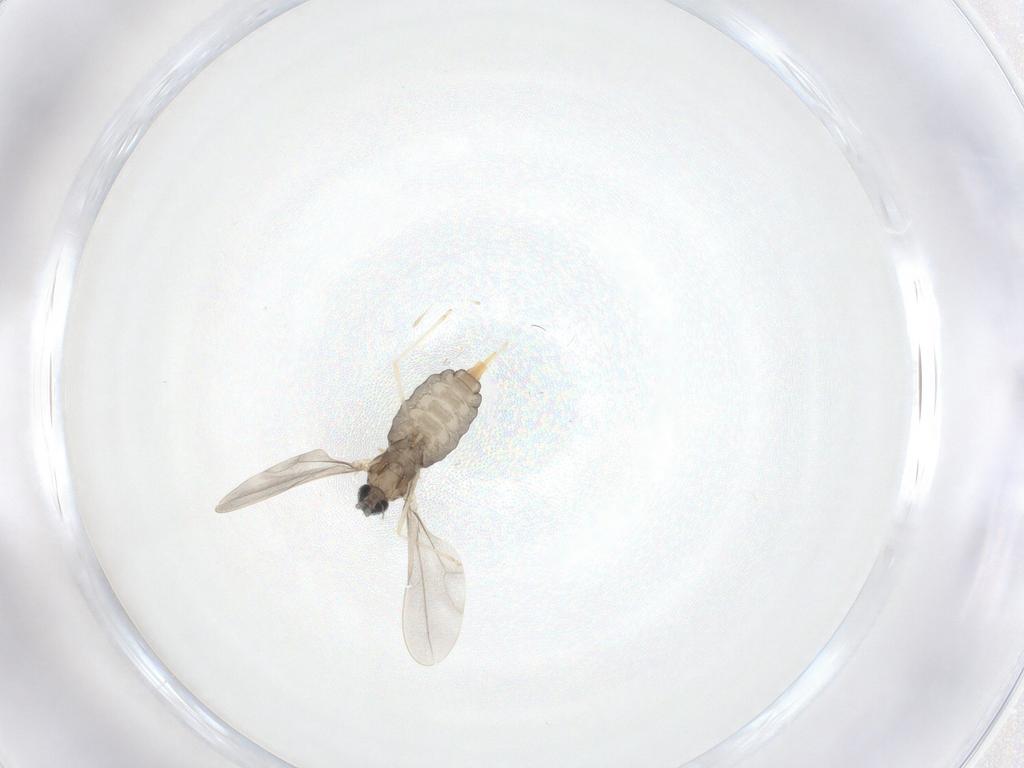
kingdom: Animalia
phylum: Arthropoda
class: Insecta
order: Diptera
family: Cecidomyiidae
